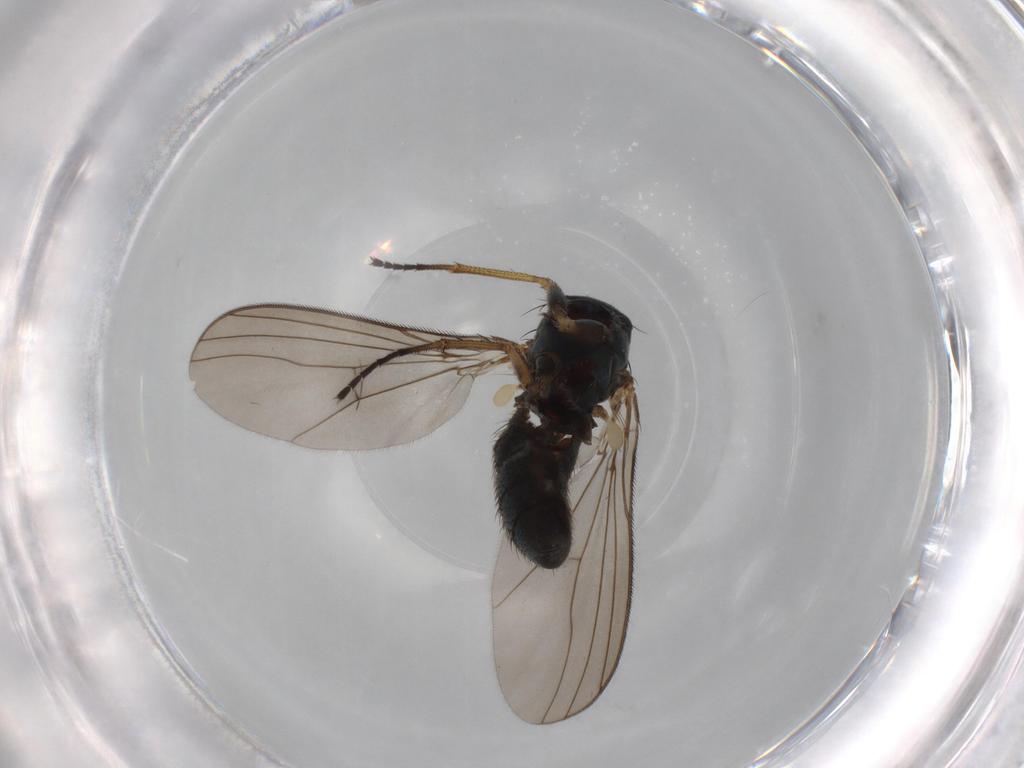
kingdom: Animalia
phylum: Arthropoda
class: Insecta
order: Diptera
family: Dolichopodidae
